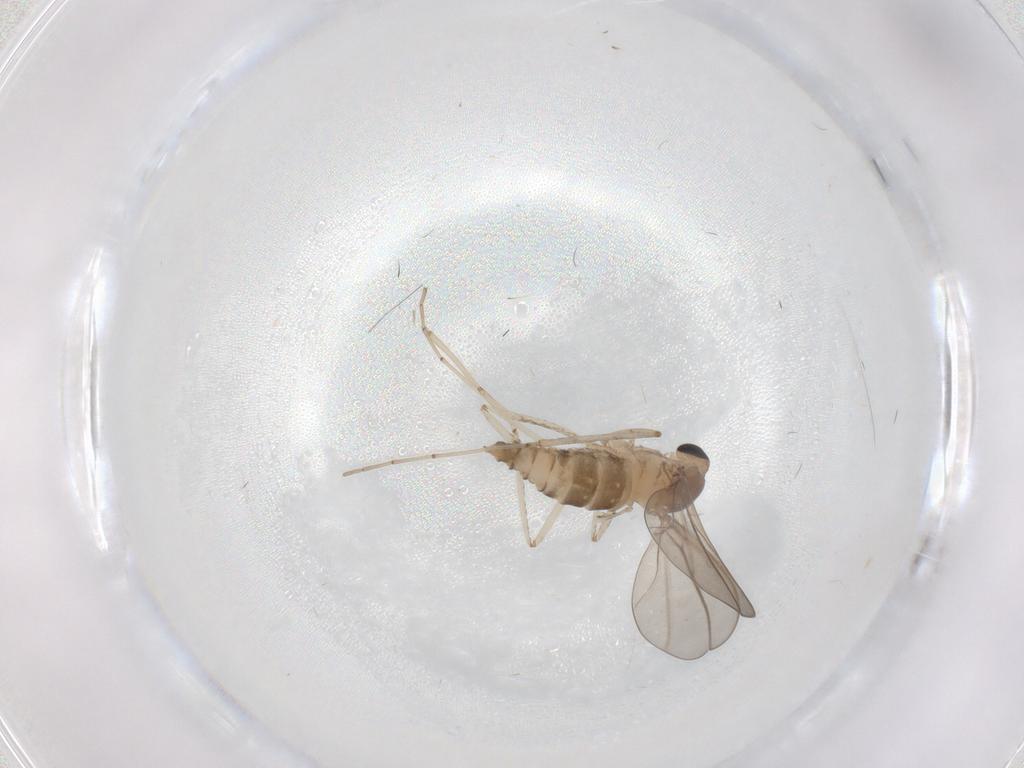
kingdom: Animalia
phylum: Arthropoda
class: Insecta
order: Diptera
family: Cecidomyiidae
